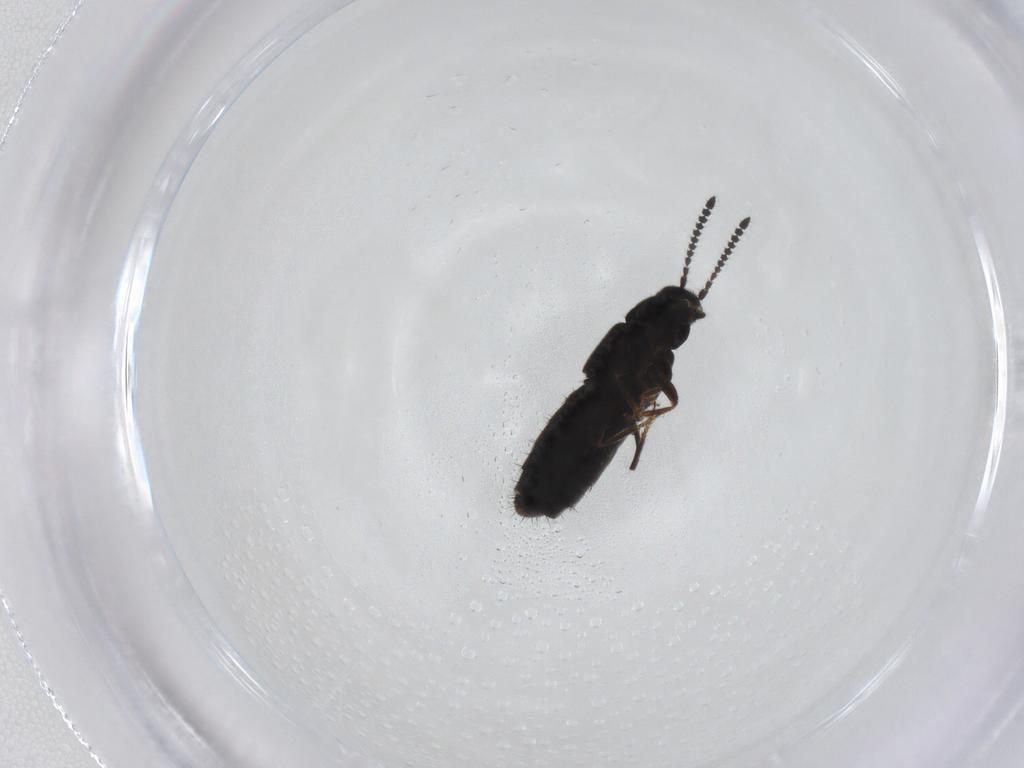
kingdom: Animalia
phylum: Arthropoda
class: Insecta
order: Coleoptera
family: Staphylinidae
